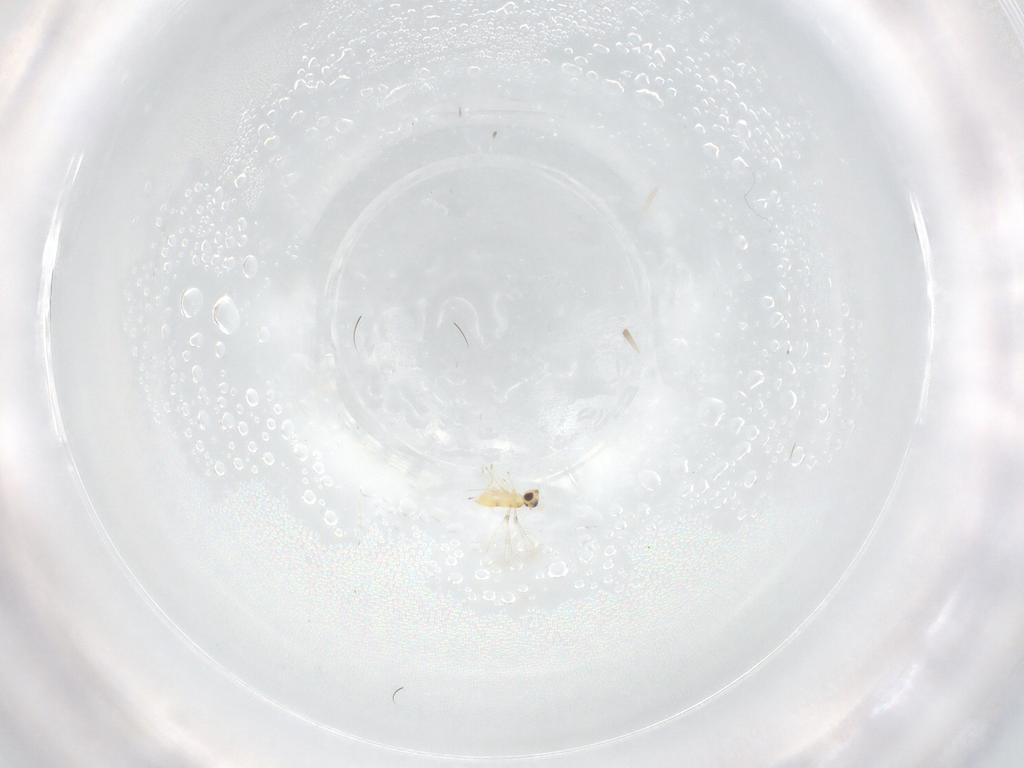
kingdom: Animalia
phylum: Arthropoda
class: Insecta
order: Hymenoptera
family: Mymaridae
